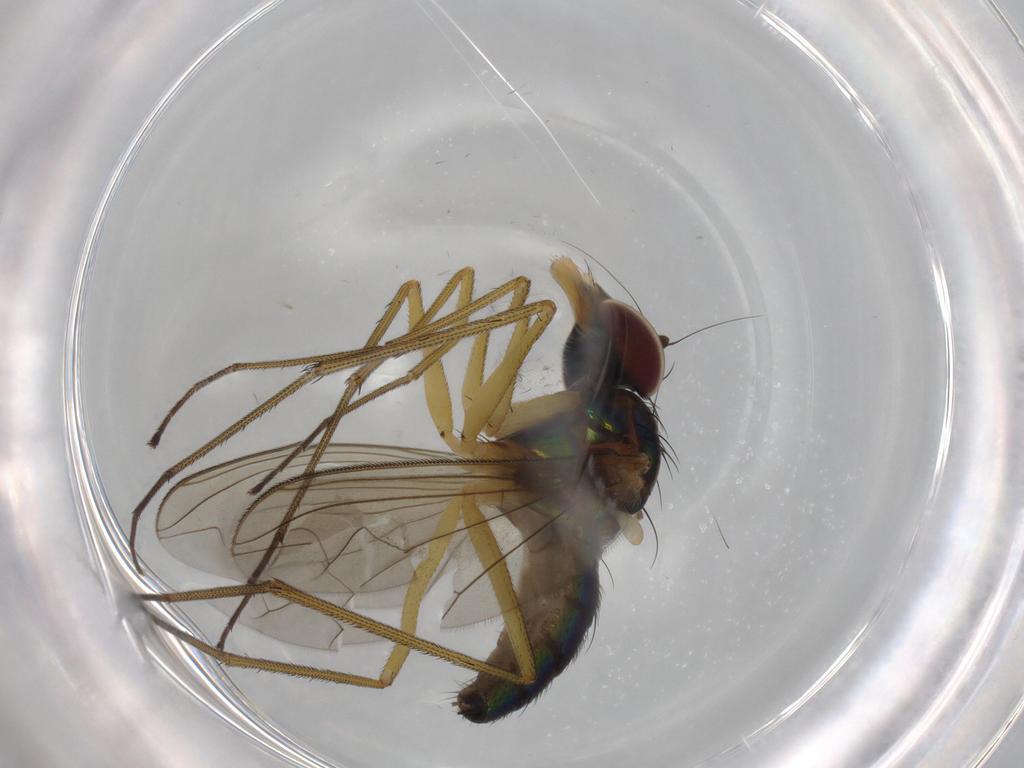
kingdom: Animalia
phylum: Arthropoda
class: Insecta
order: Diptera
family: Dolichopodidae
